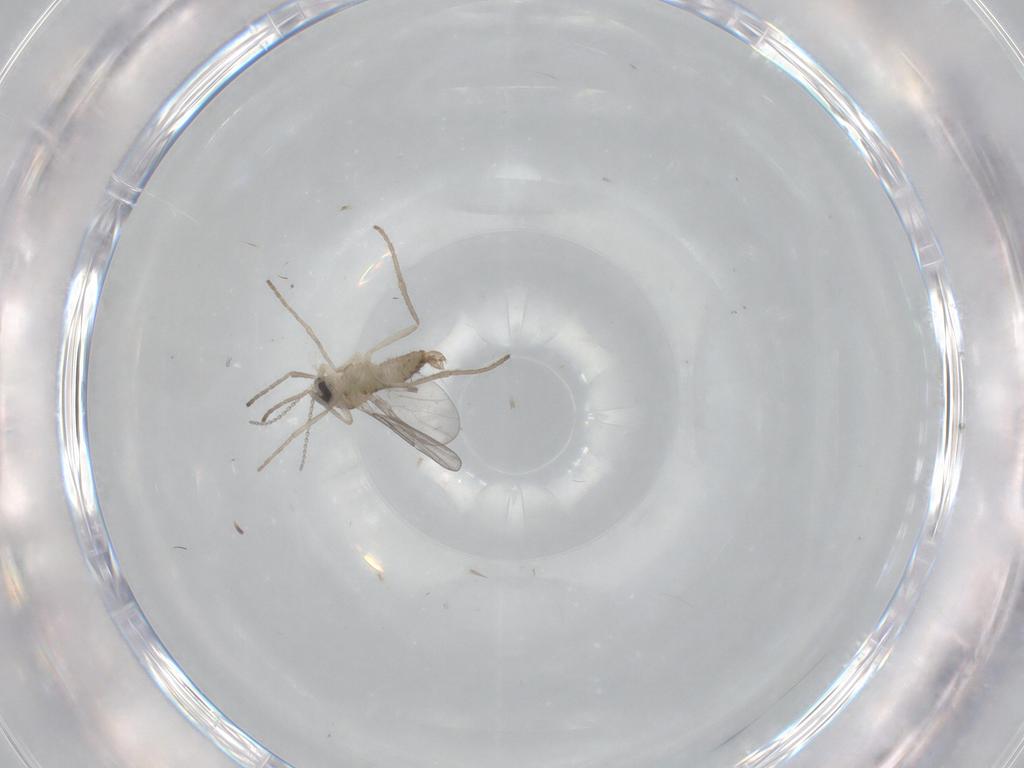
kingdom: Animalia
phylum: Arthropoda
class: Insecta
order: Diptera
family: Cecidomyiidae
